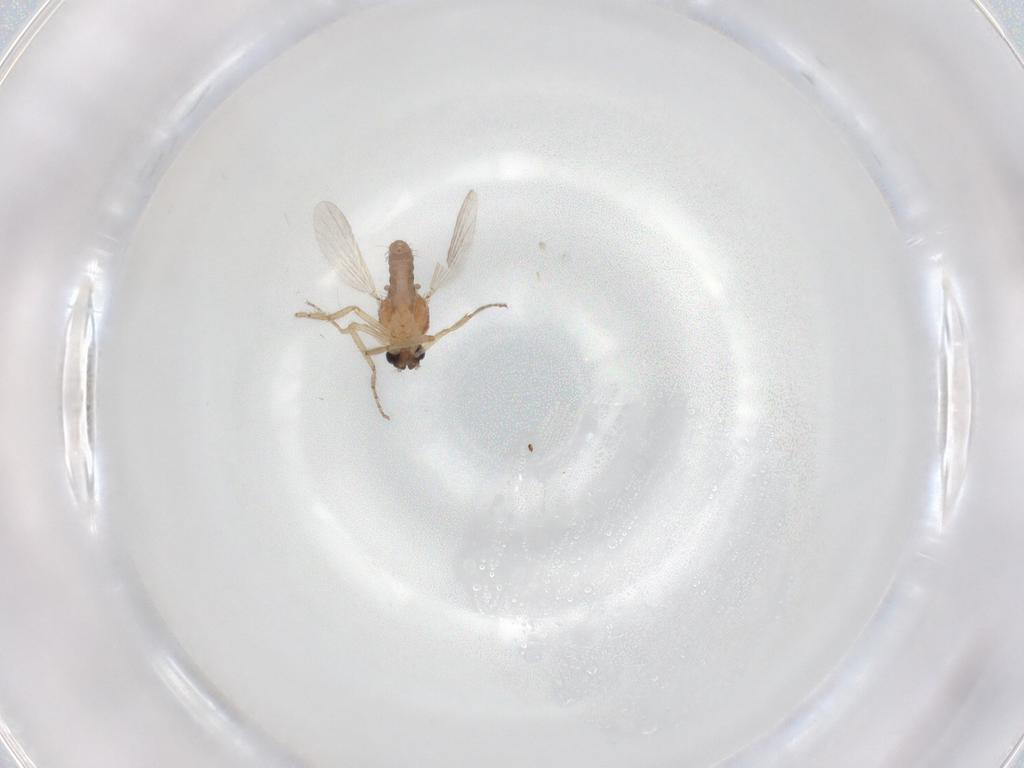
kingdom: Animalia
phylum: Arthropoda
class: Insecta
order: Diptera
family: Ceratopogonidae
